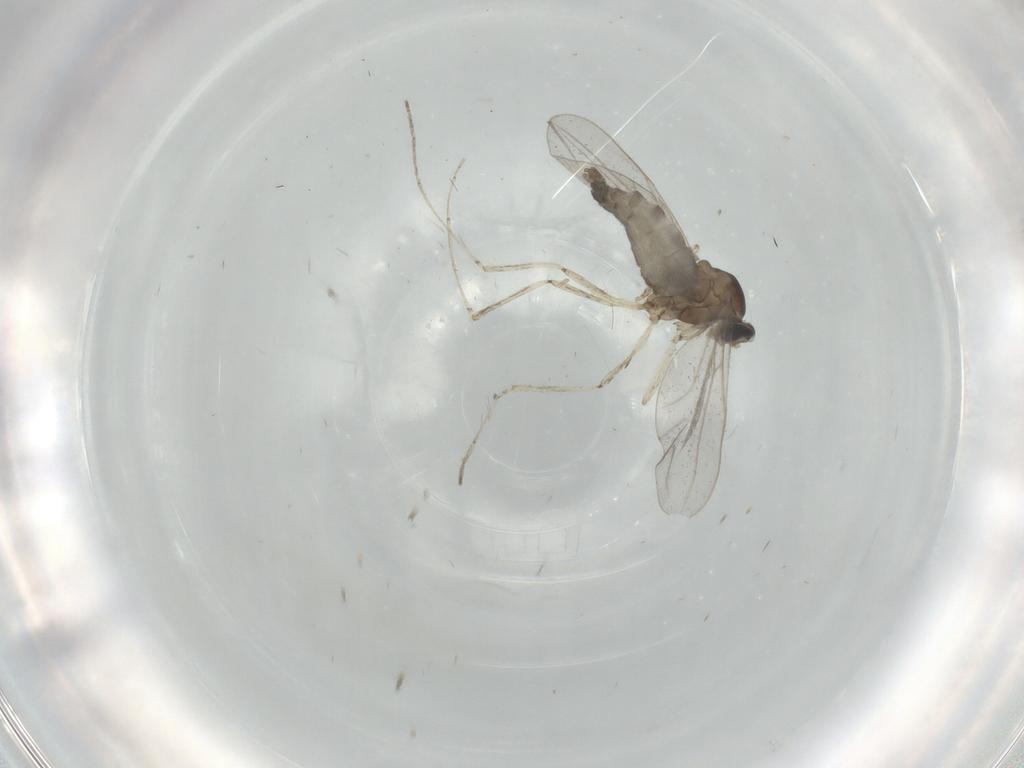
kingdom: Animalia
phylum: Arthropoda
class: Insecta
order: Diptera
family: Cecidomyiidae
